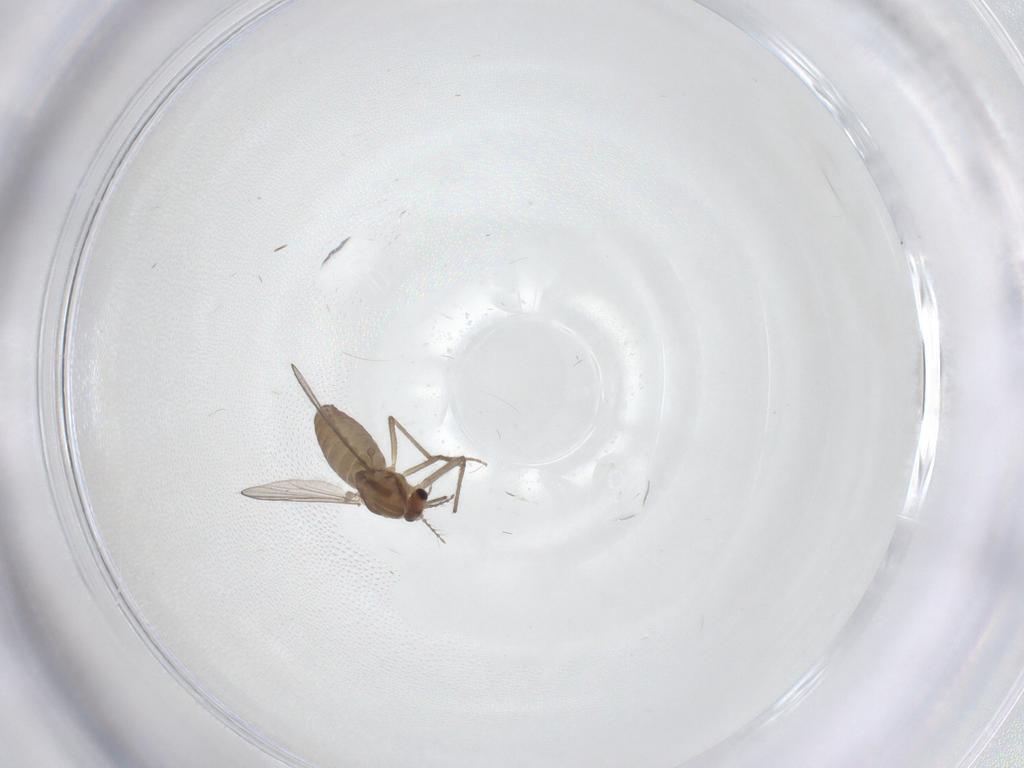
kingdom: Animalia
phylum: Arthropoda
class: Insecta
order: Diptera
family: Chironomidae
